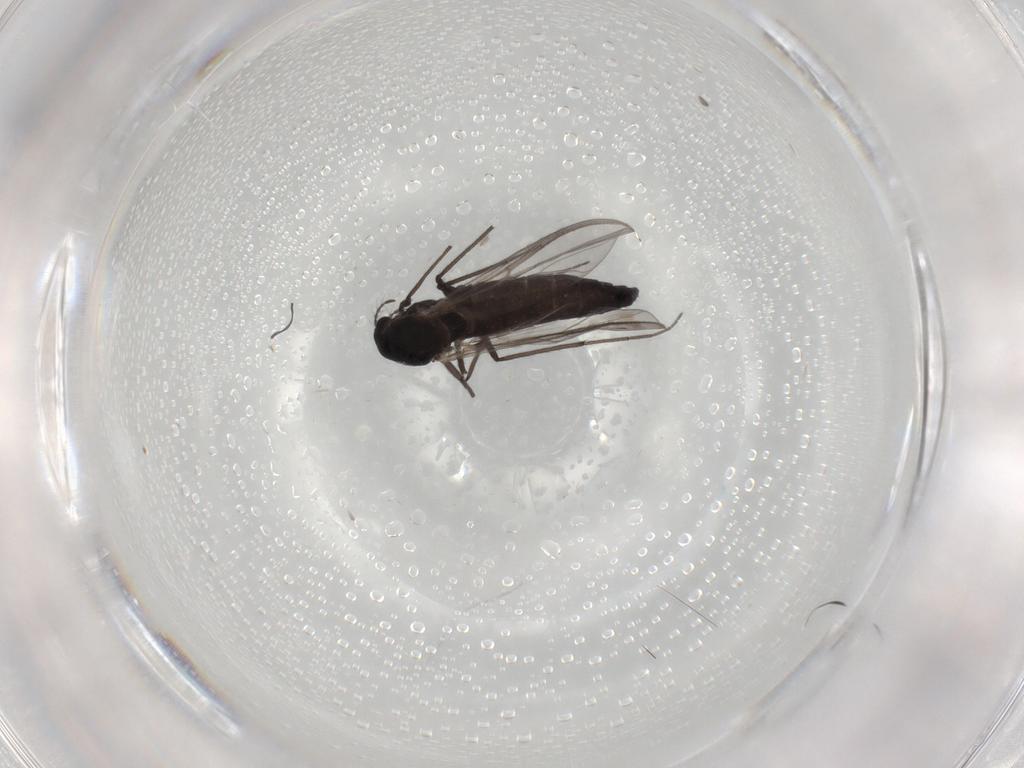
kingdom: Animalia
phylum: Arthropoda
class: Insecta
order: Diptera
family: Chironomidae
